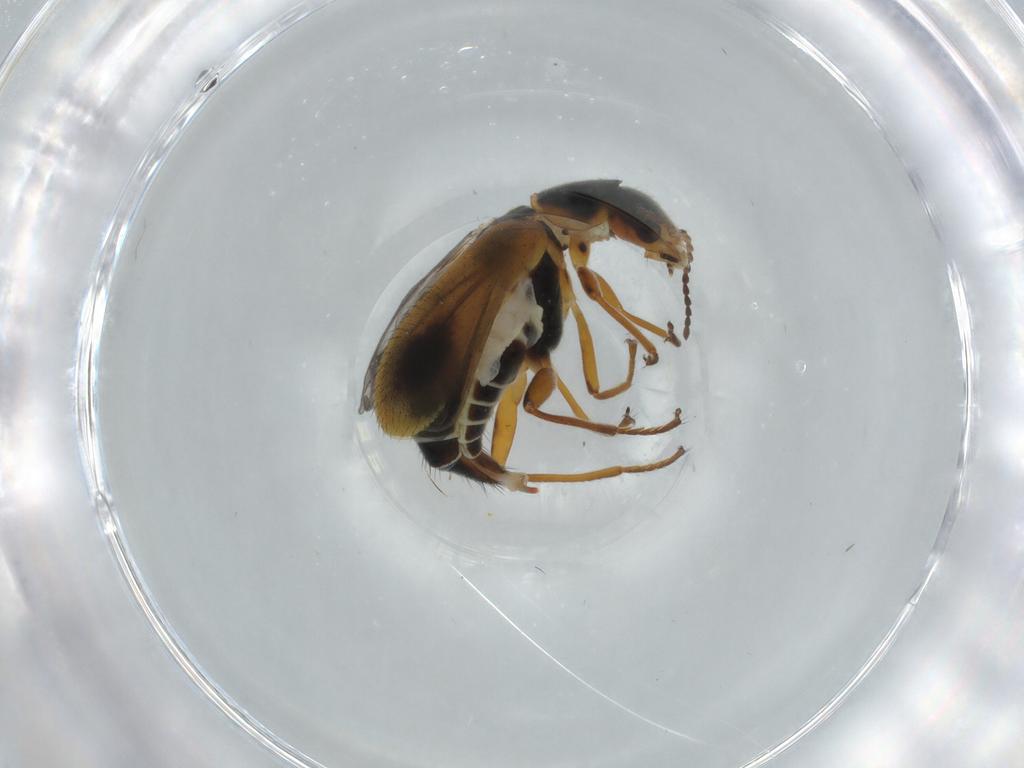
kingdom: Animalia
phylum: Arthropoda
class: Insecta
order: Coleoptera
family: Melyridae
